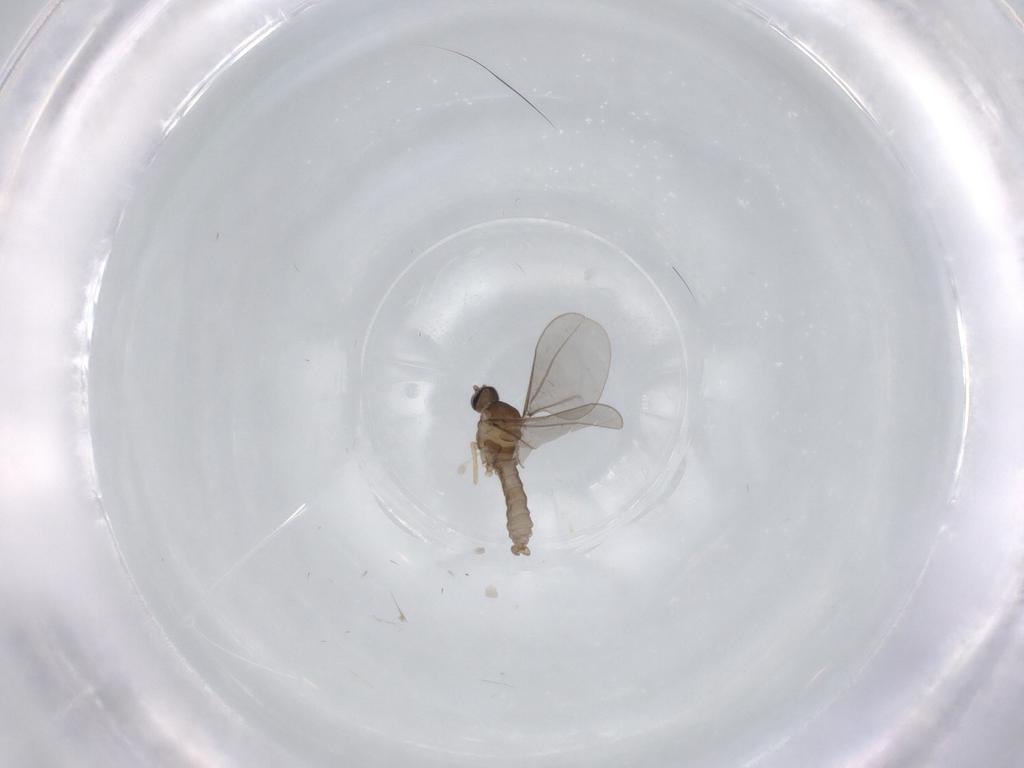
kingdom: Animalia
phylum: Arthropoda
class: Insecta
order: Diptera
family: Cecidomyiidae
